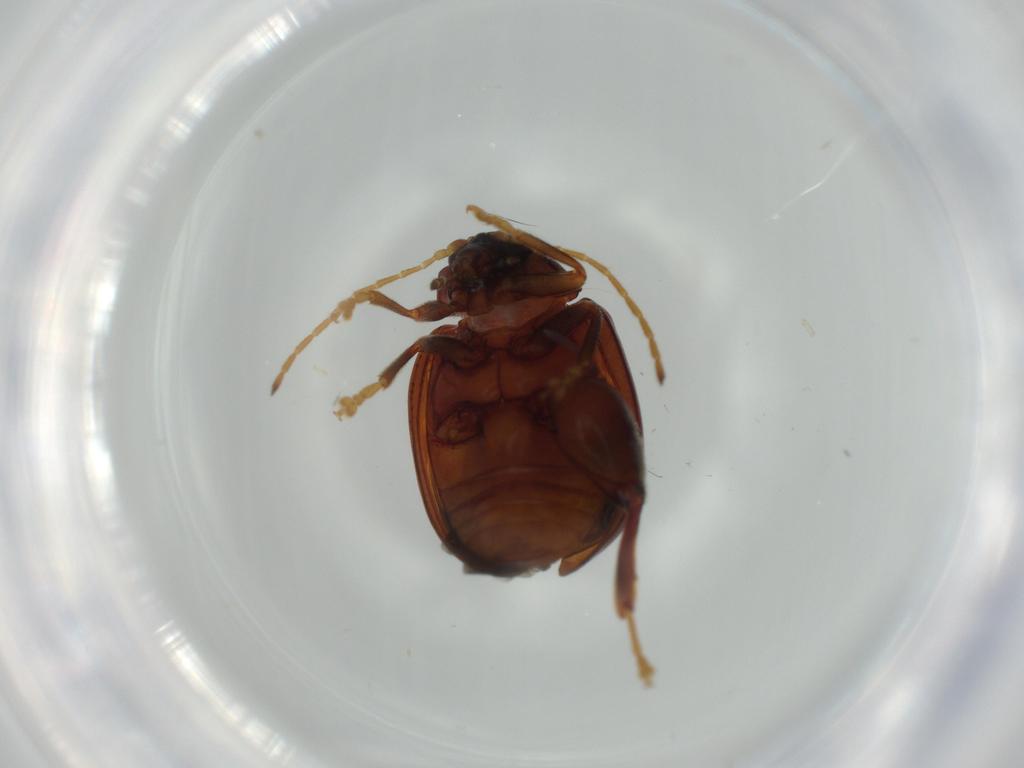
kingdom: Animalia
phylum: Arthropoda
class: Insecta
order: Coleoptera
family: Chrysomelidae
